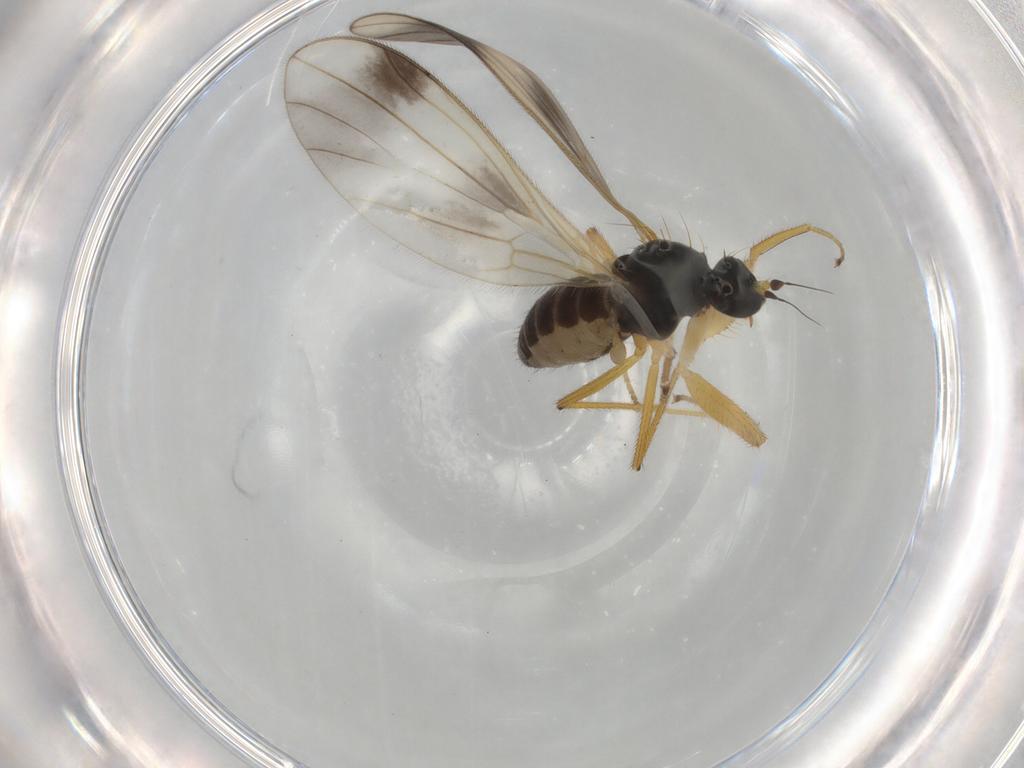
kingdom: Animalia
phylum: Arthropoda
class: Insecta
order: Diptera
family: Empididae
